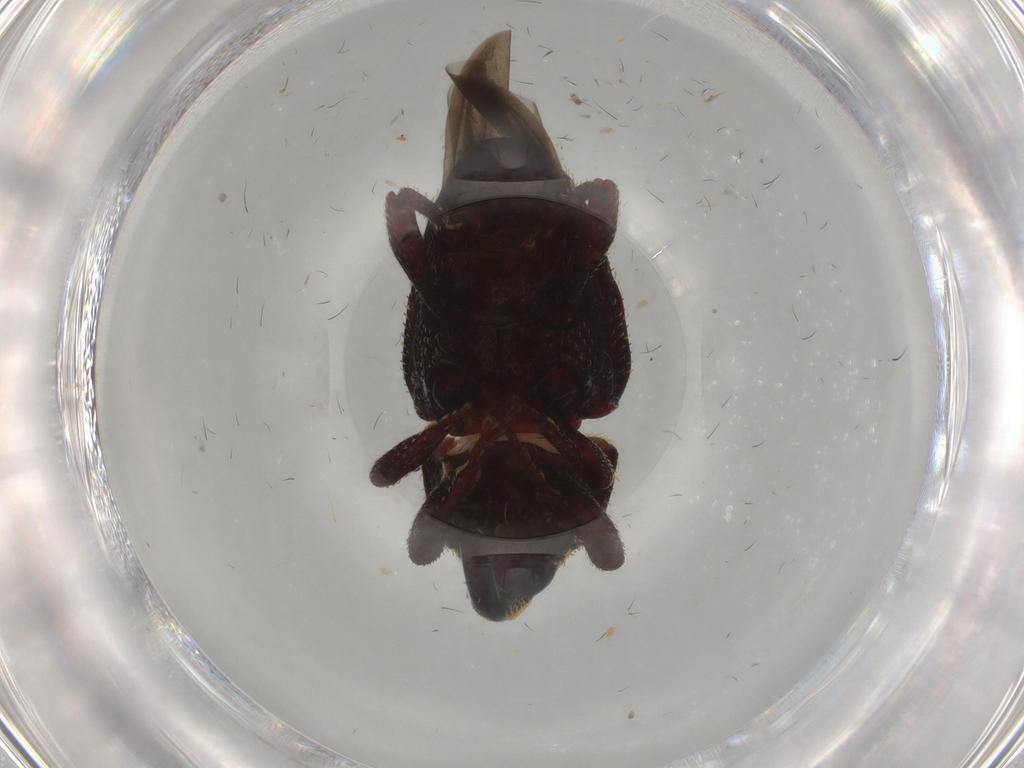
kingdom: Animalia
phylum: Arthropoda
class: Insecta
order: Coleoptera
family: Curculionidae
